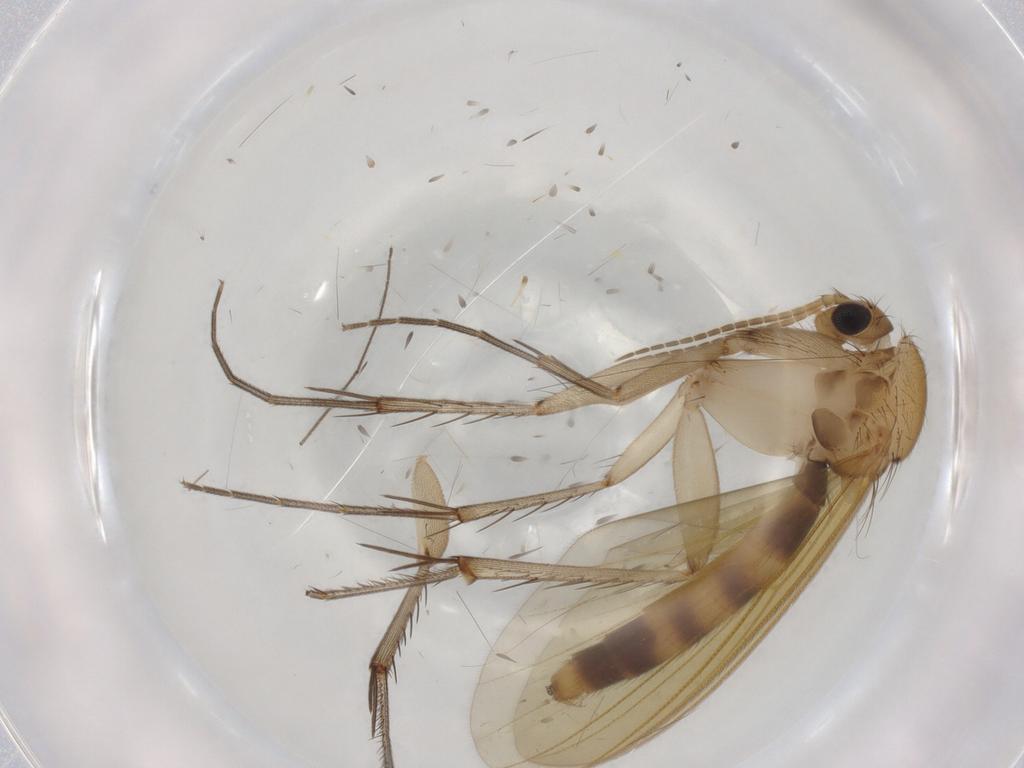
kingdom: Animalia
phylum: Arthropoda
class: Insecta
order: Diptera
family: Mycetophilidae
